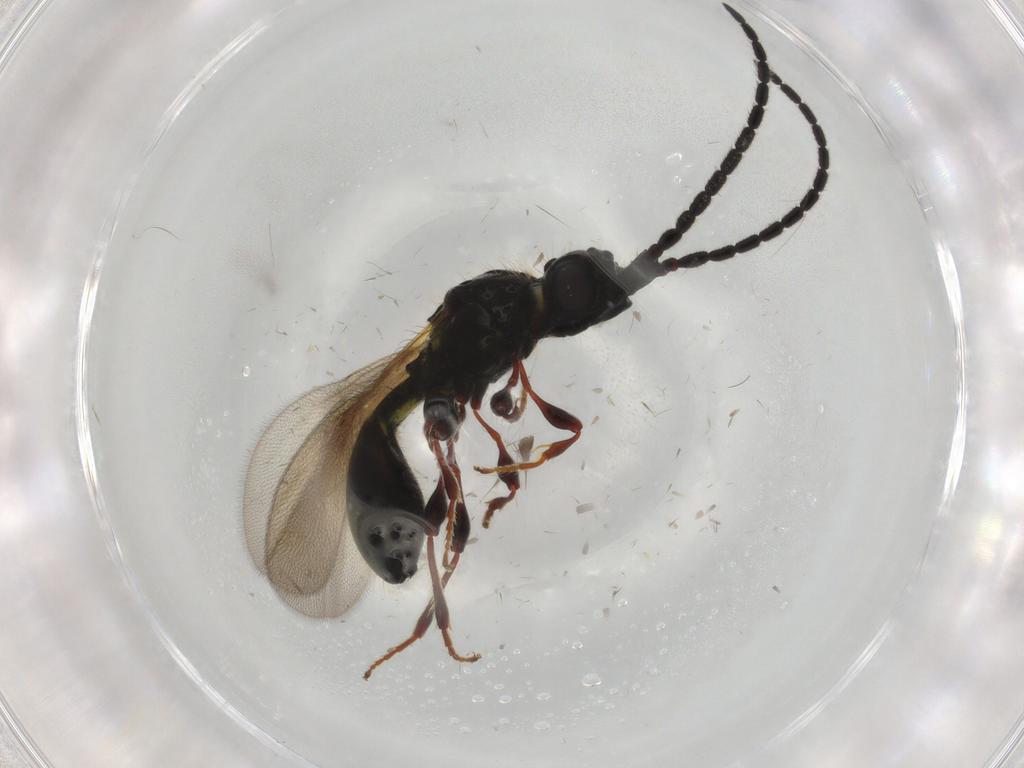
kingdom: Animalia
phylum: Arthropoda
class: Insecta
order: Hymenoptera
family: Diapriidae
